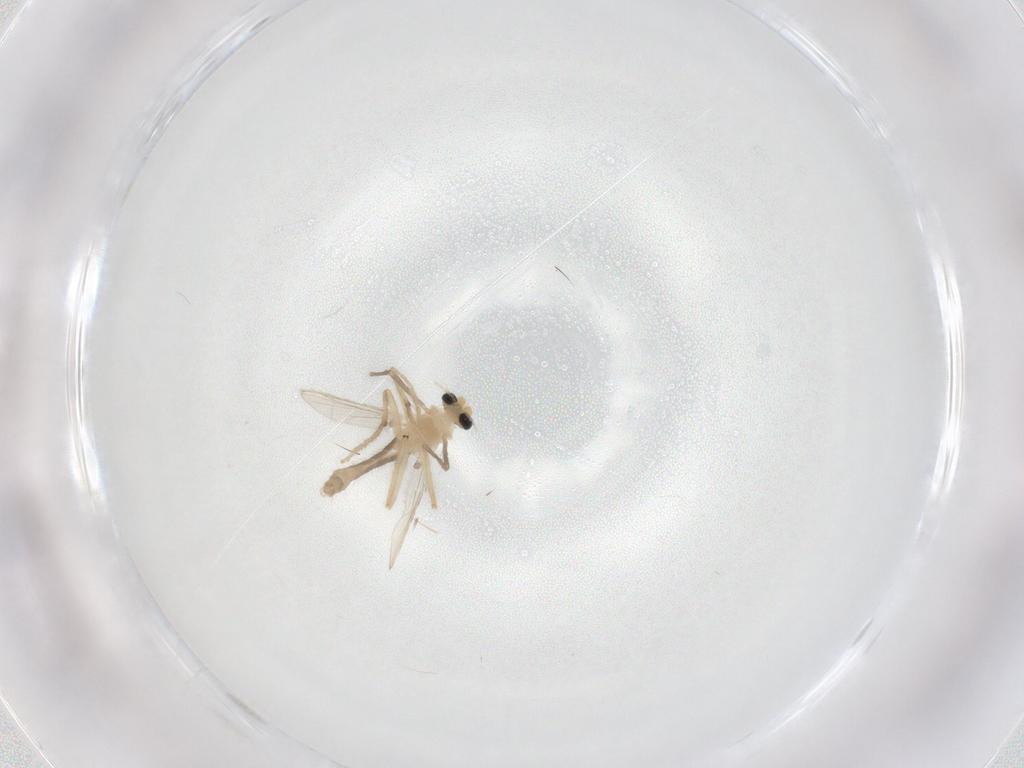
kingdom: Animalia
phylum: Arthropoda
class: Insecta
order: Diptera
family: Chironomidae
